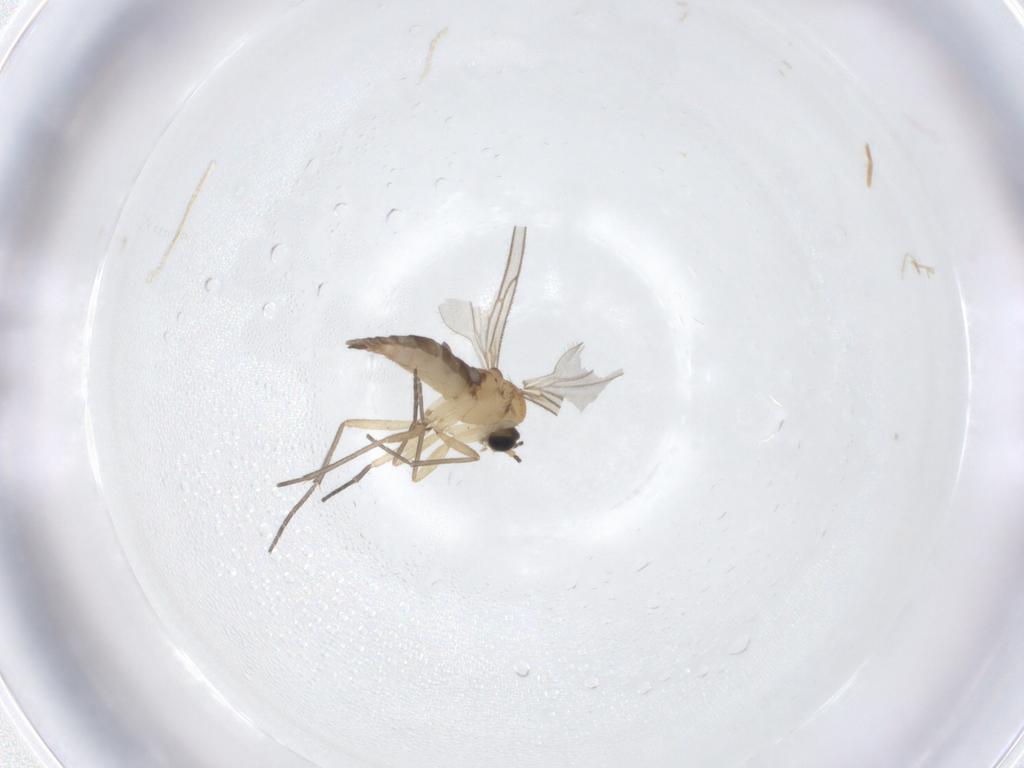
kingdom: Animalia
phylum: Arthropoda
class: Insecta
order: Diptera
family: Sciaridae
